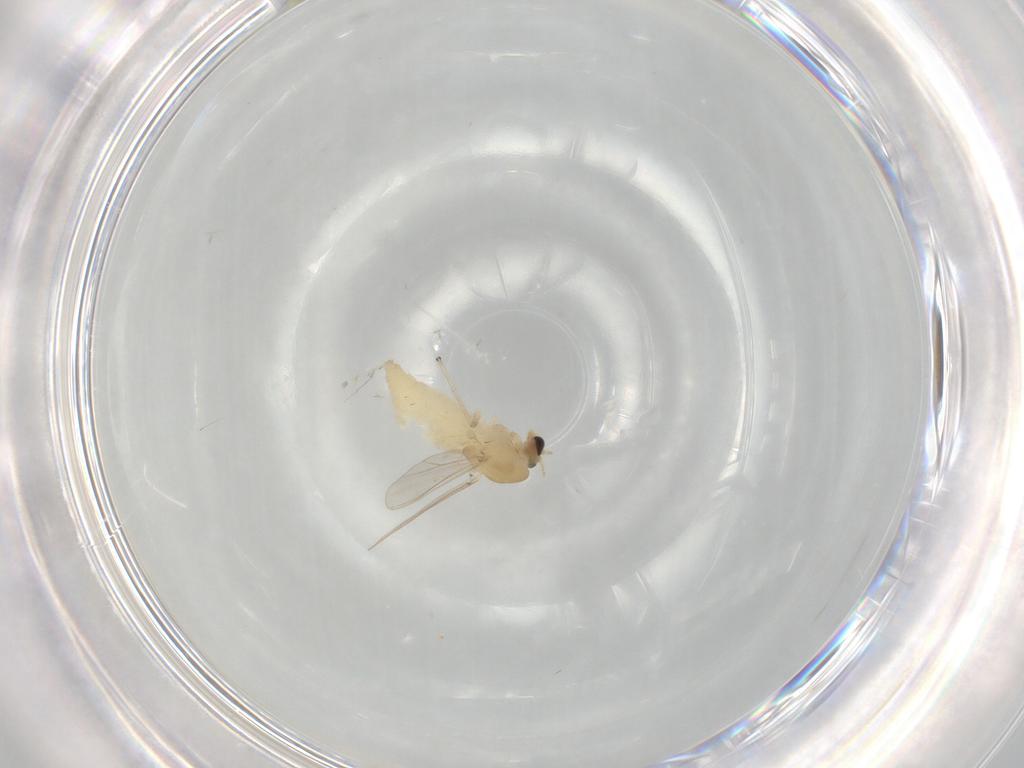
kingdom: Animalia
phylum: Arthropoda
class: Insecta
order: Diptera
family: Chironomidae
